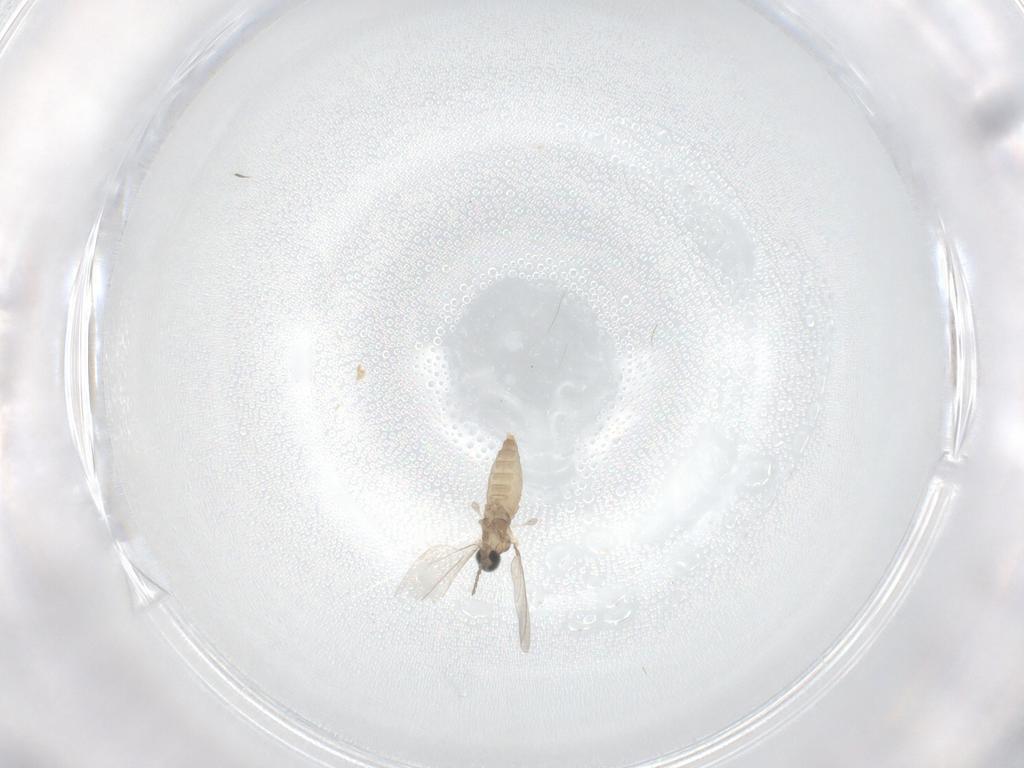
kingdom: Animalia
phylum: Arthropoda
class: Insecta
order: Diptera
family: Cecidomyiidae
